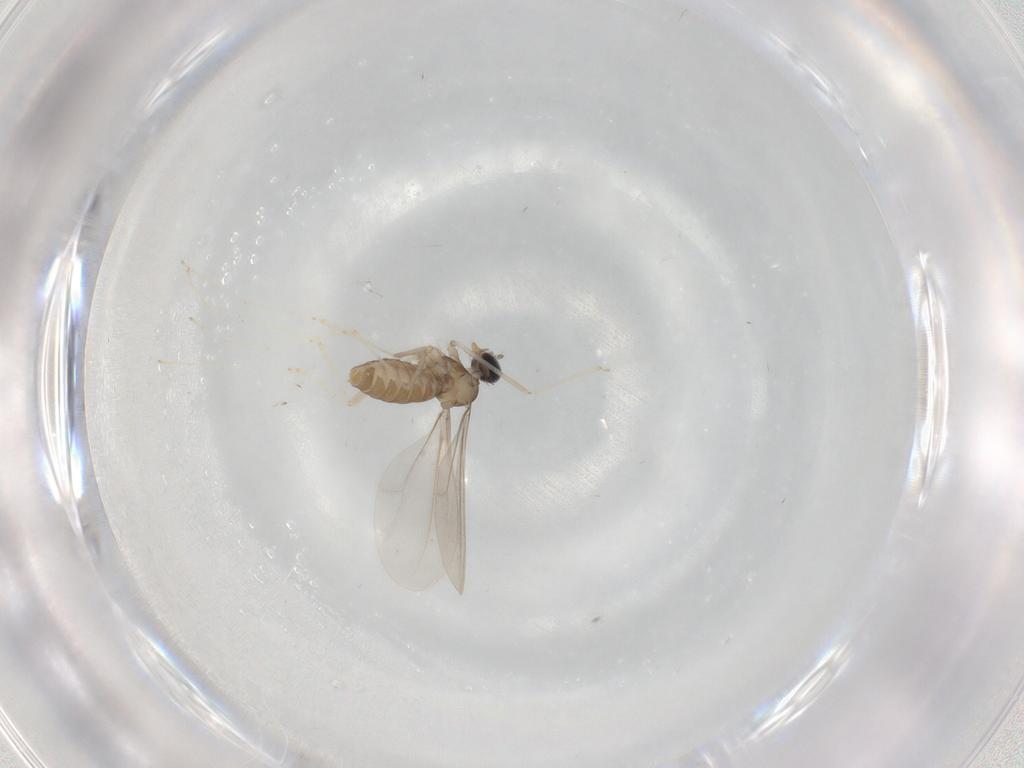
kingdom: Animalia
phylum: Arthropoda
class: Insecta
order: Diptera
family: Cecidomyiidae
